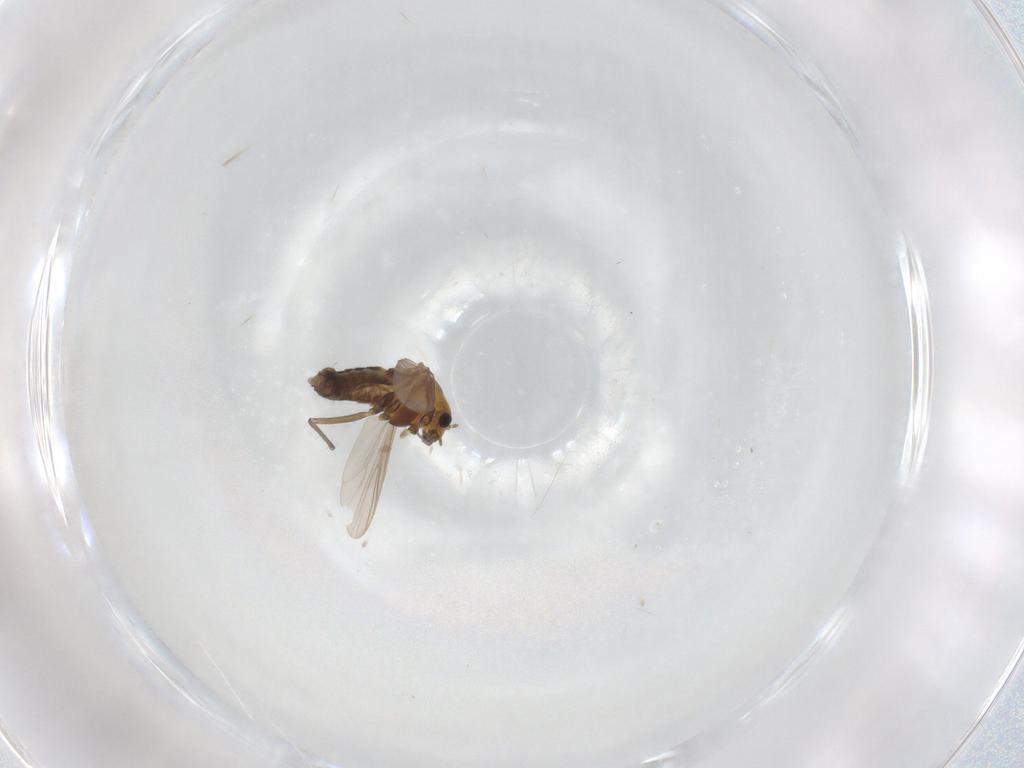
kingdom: Animalia
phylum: Arthropoda
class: Insecta
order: Diptera
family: Chironomidae
